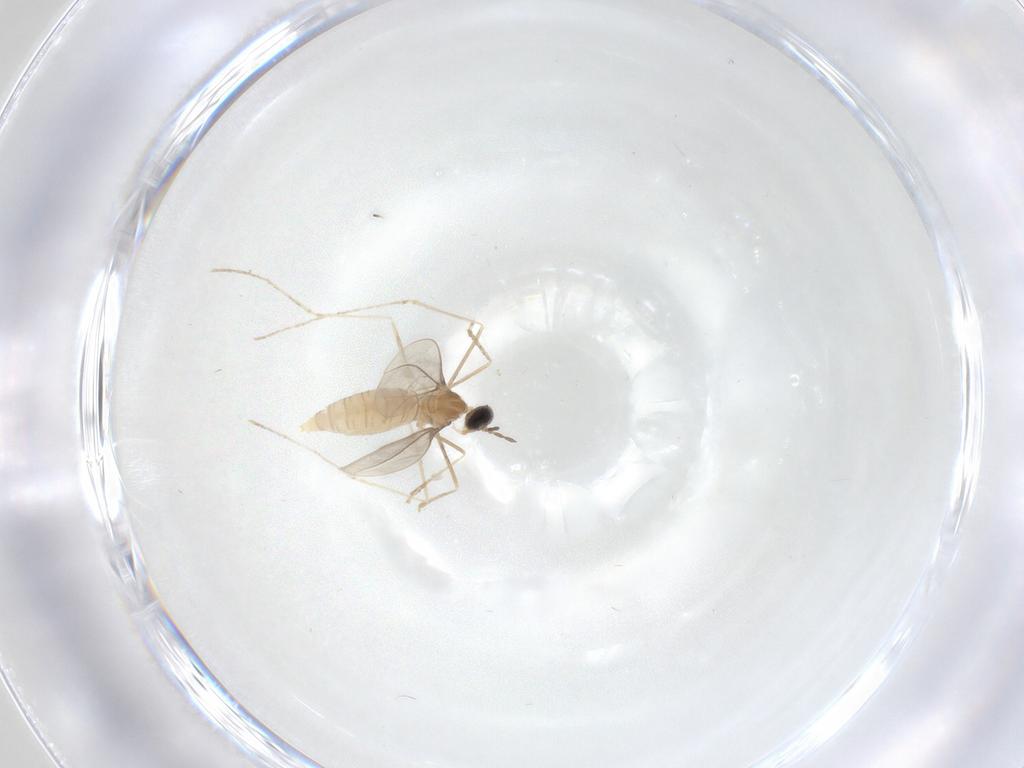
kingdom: Animalia
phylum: Arthropoda
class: Insecta
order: Diptera
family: Cecidomyiidae
